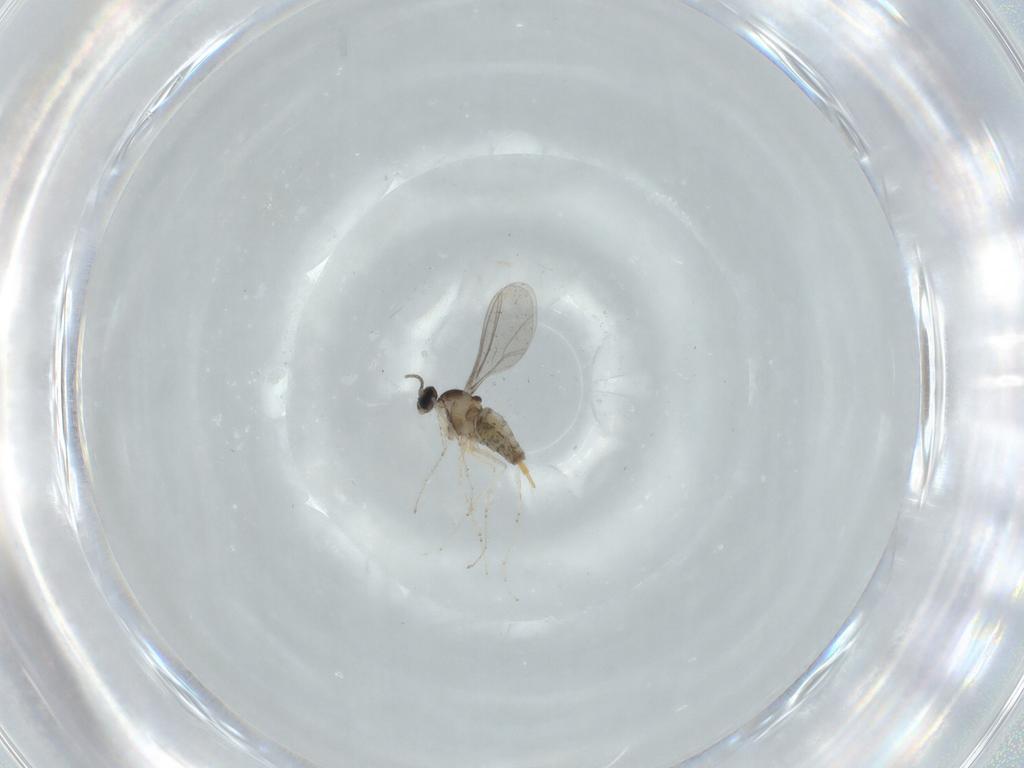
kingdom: Animalia
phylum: Arthropoda
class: Insecta
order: Diptera
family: Cecidomyiidae
